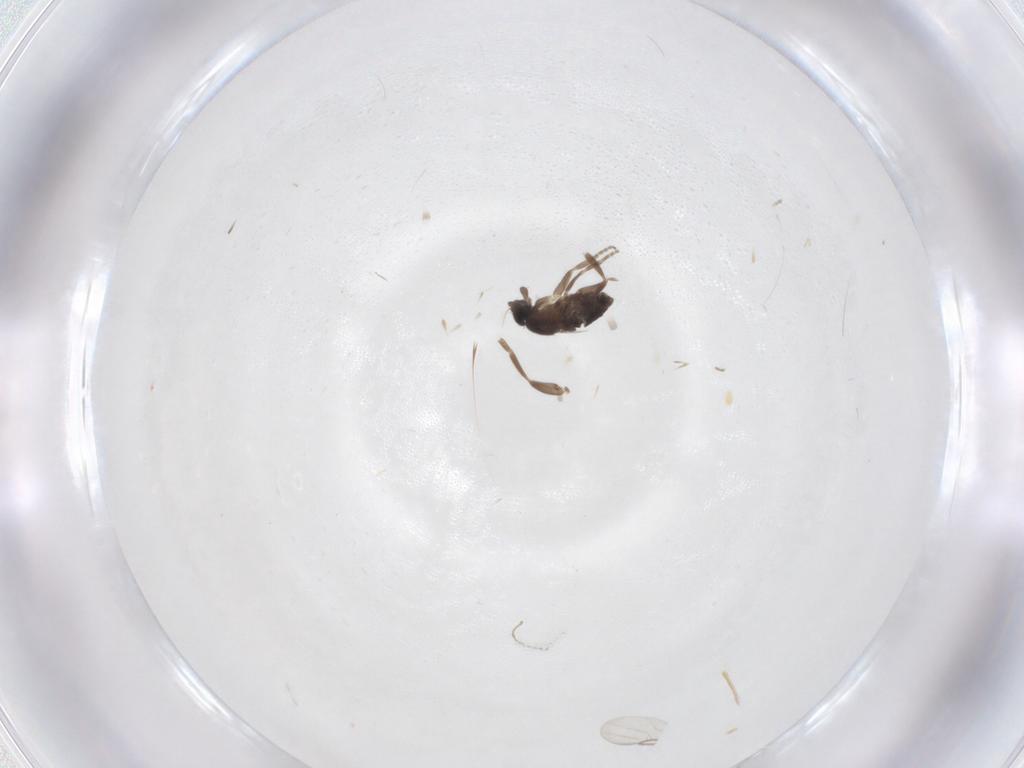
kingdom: Animalia
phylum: Arthropoda
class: Insecta
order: Diptera
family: Phoridae
